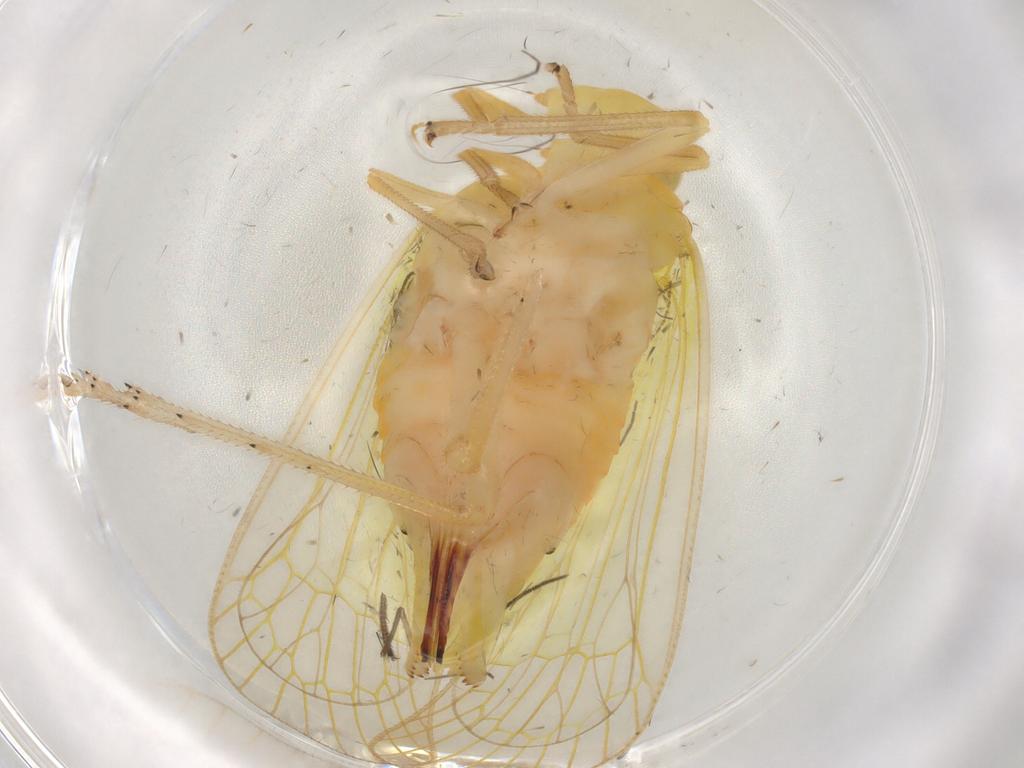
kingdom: Animalia
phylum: Arthropoda
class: Insecta
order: Hemiptera
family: Tropiduchidae
